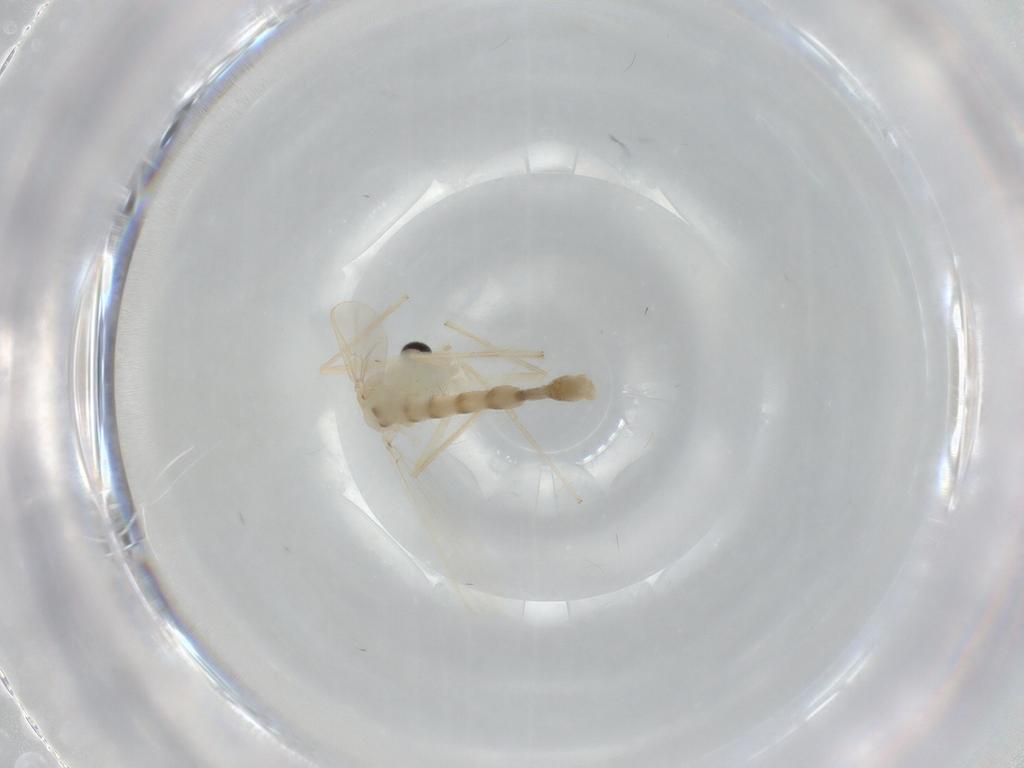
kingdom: Animalia
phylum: Arthropoda
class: Insecta
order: Diptera
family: Chironomidae
